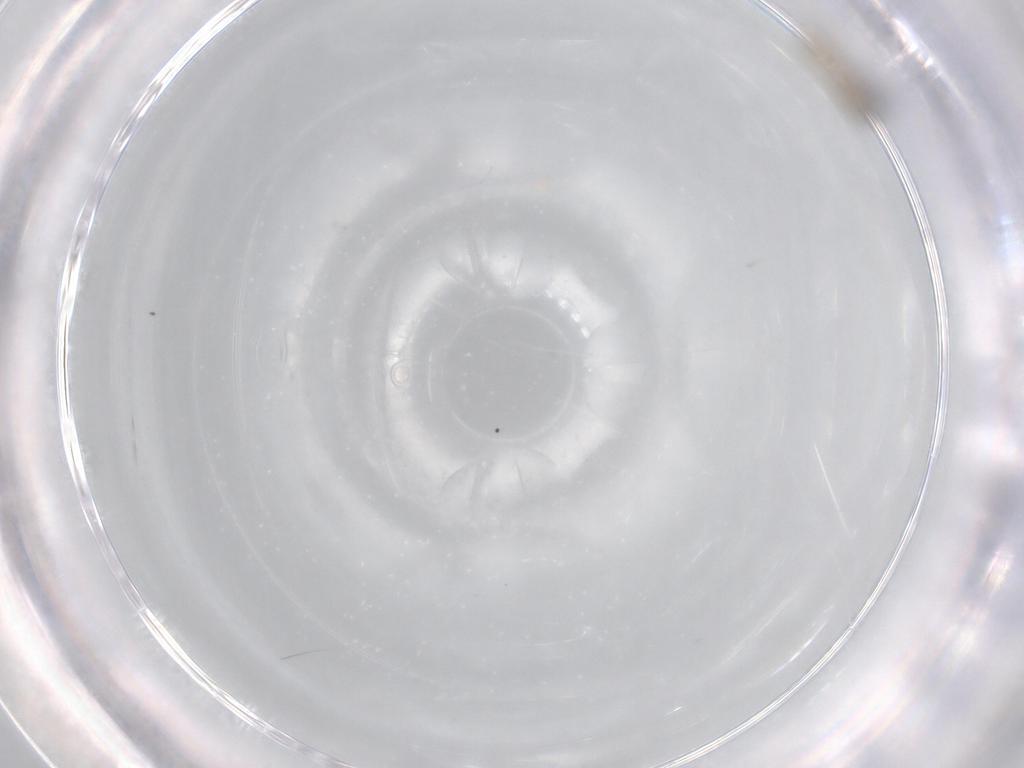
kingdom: Animalia
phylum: Arthropoda
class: Insecta
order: Diptera
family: Cecidomyiidae
